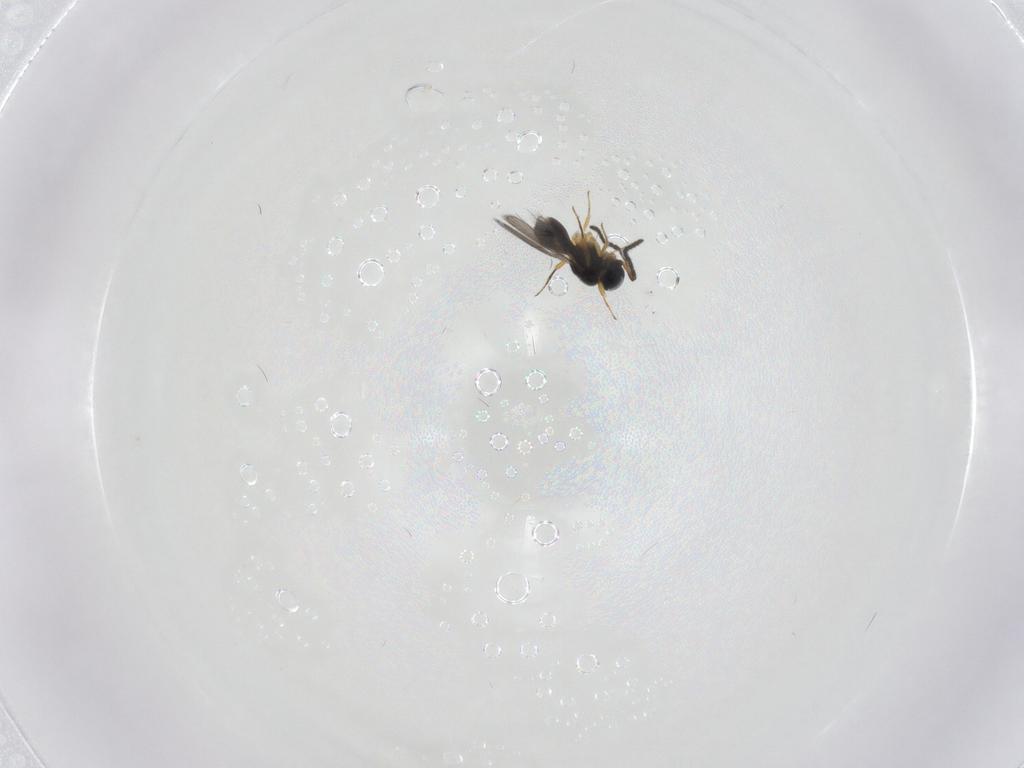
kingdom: Animalia
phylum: Arthropoda
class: Insecta
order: Hymenoptera
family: Scelionidae
